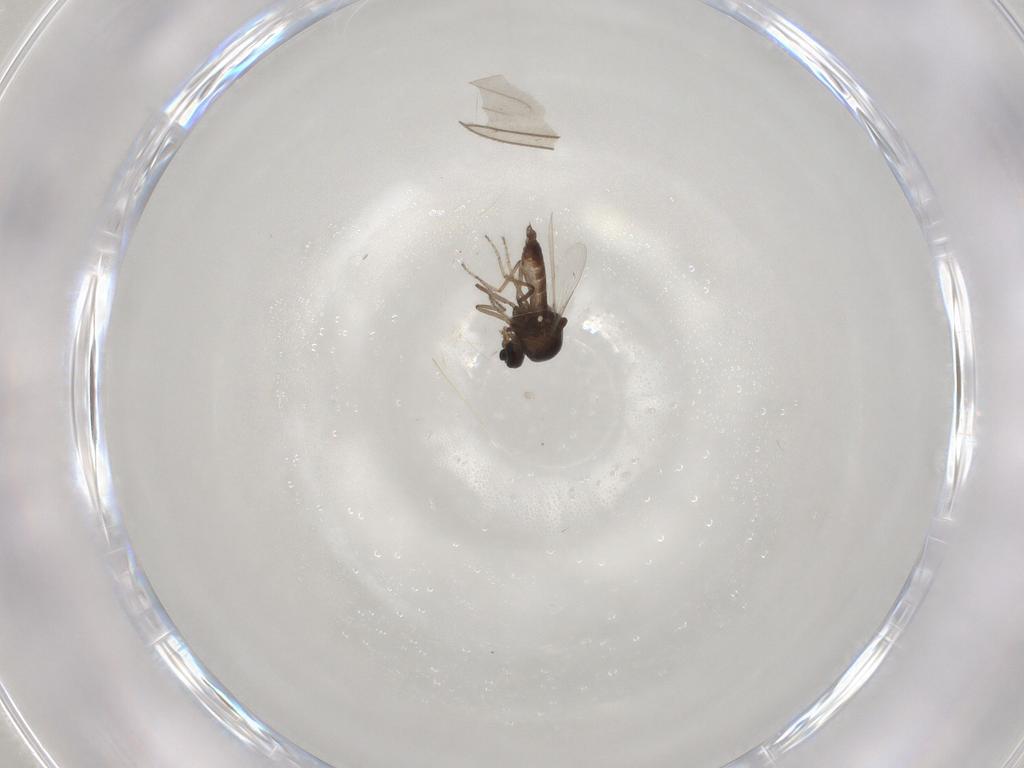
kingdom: Animalia
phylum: Arthropoda
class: Insecta
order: Diptera
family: Ceratopogonidae
